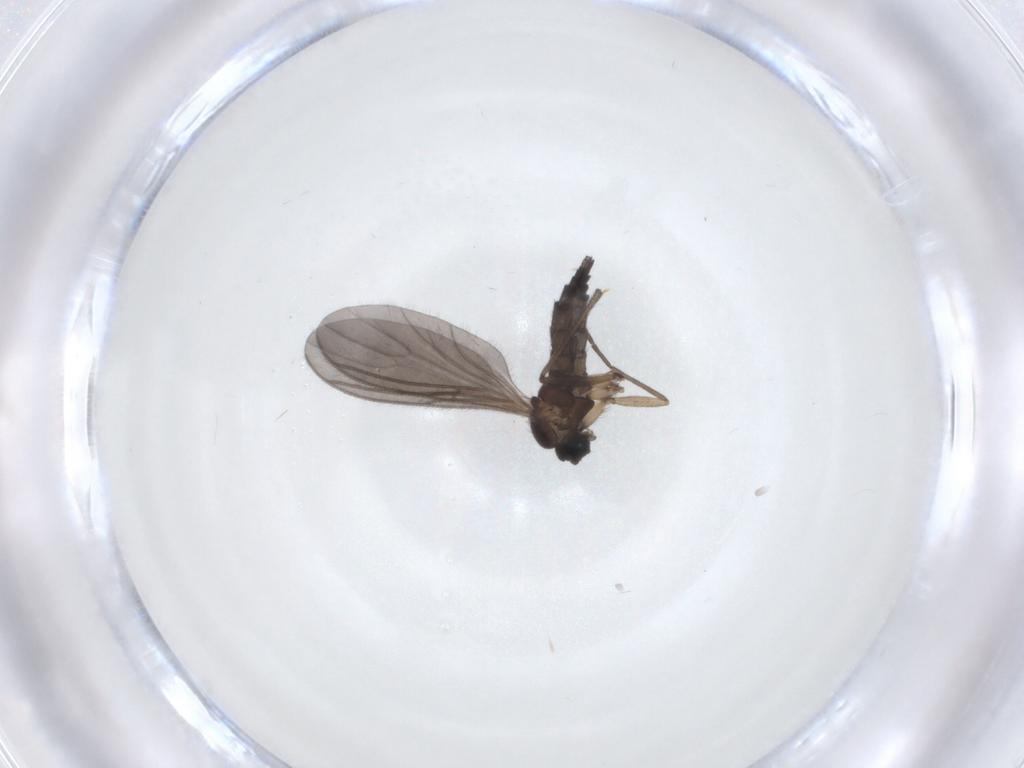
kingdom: Animalia
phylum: Arthropoda
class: Insecta
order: Diptera
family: Sciaridae
